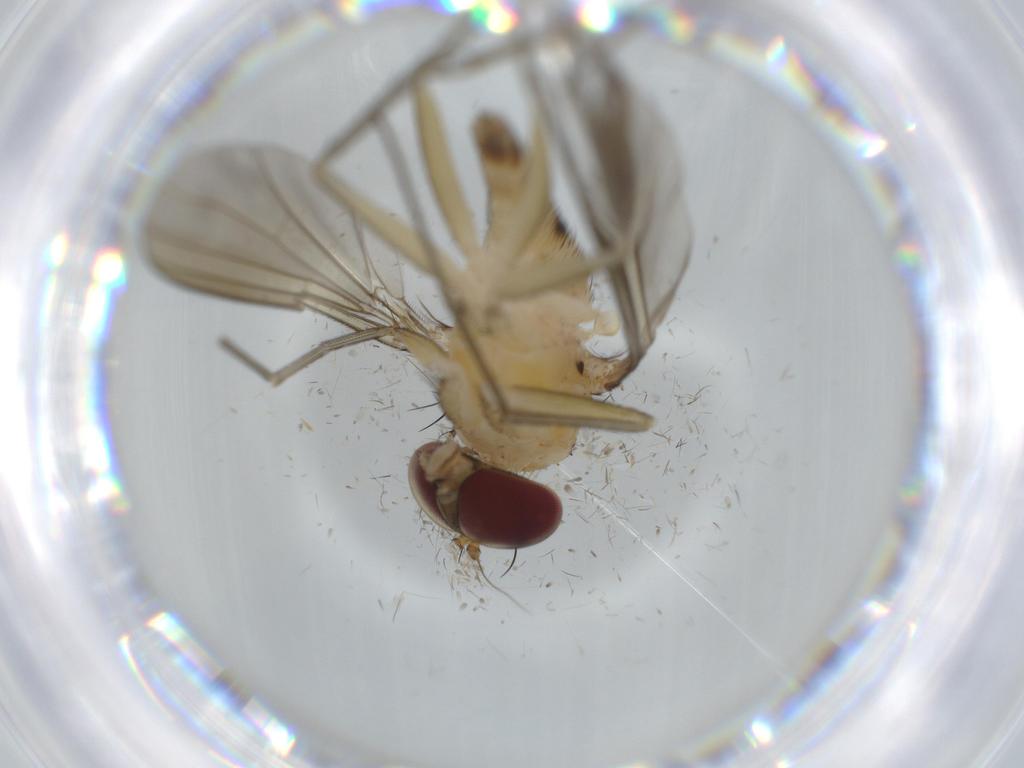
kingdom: Animalia
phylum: Arthropoda
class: Insecta
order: Diptera
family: Dolichopodidae
